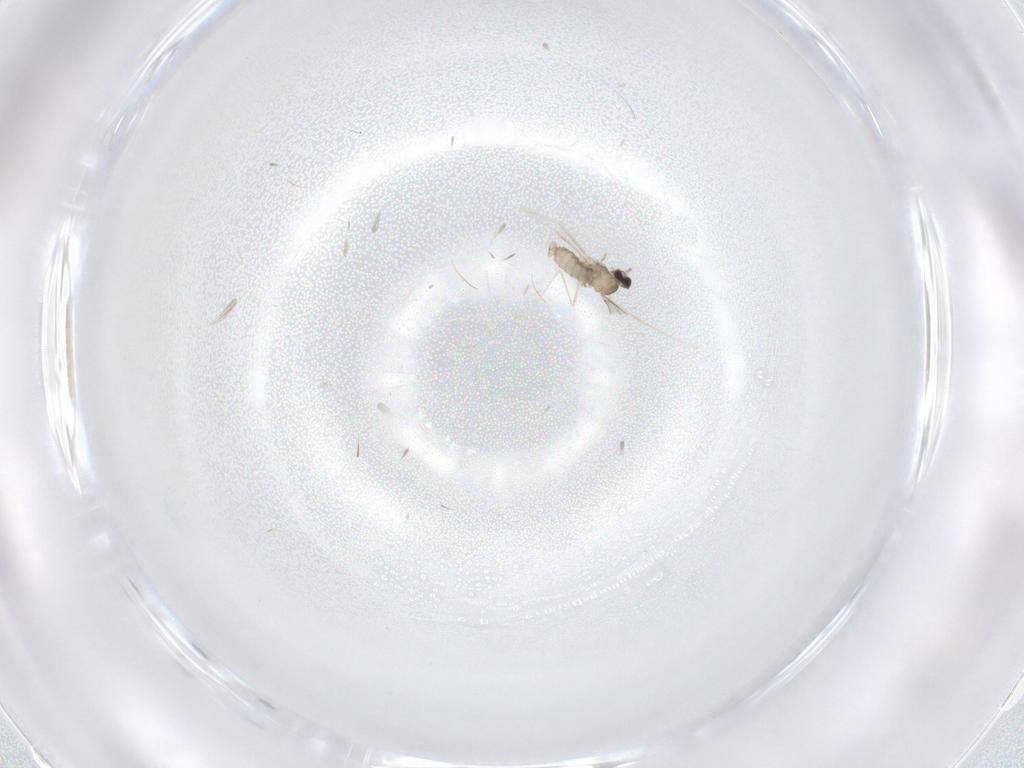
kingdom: Animalia
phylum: Arthropoda
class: Insecta
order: Diptera
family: Cecidomyiidae
